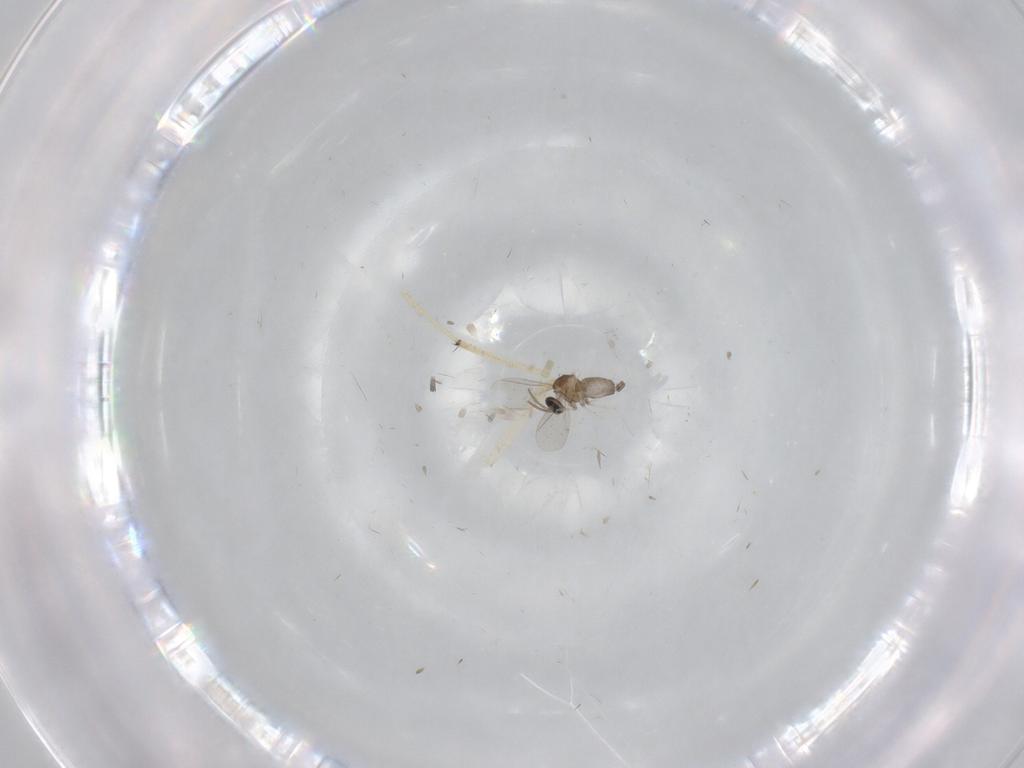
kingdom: Animalia
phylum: Arthropoda
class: Insecta
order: Diptera
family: Cecidomyiidae
